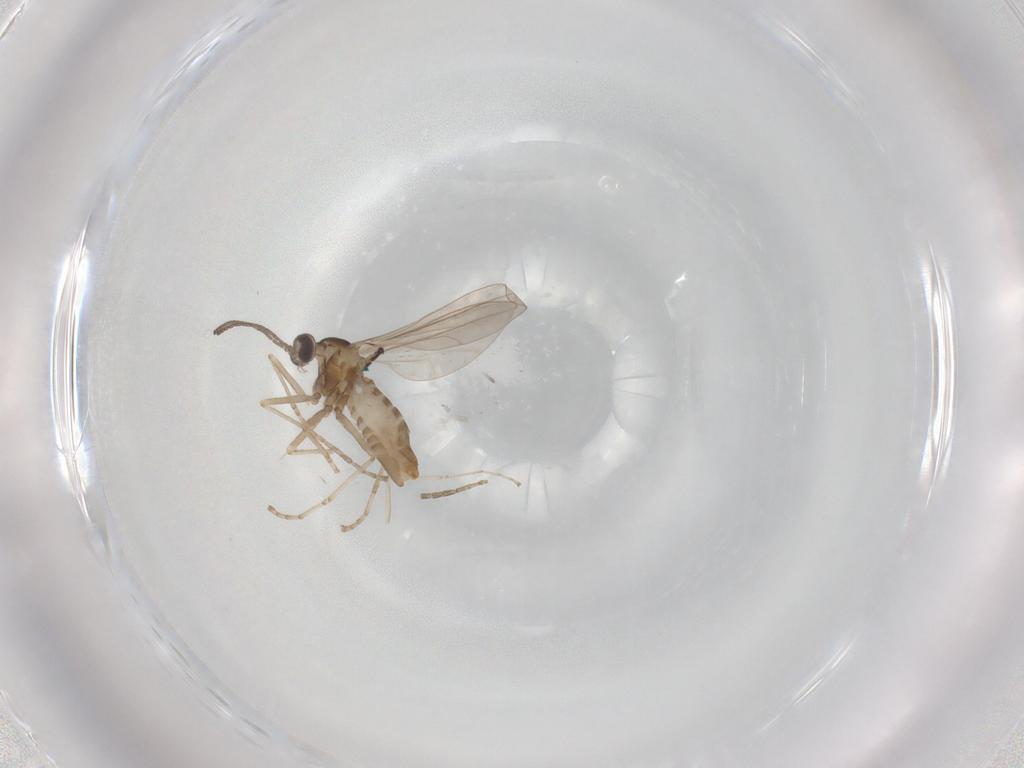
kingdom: Animalia
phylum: Arthropoda
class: Insecta
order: Diptera
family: Cecidomyiidae
